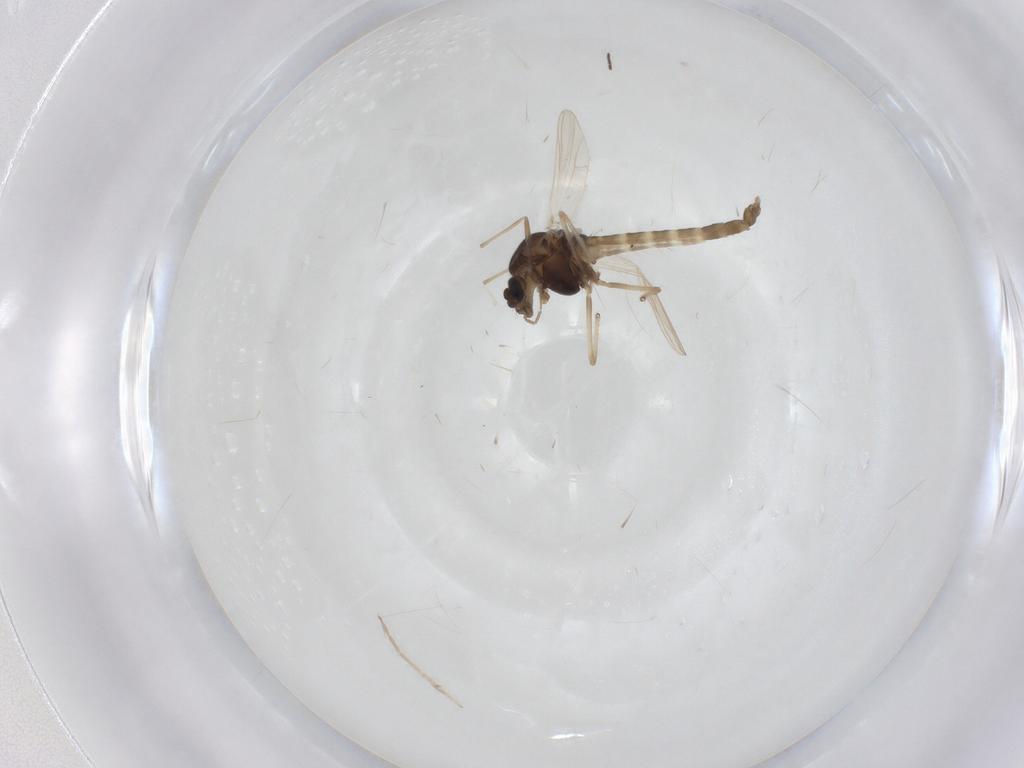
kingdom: Animalia
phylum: Arthropoda
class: Insecta
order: Diptera
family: Chironomidae
